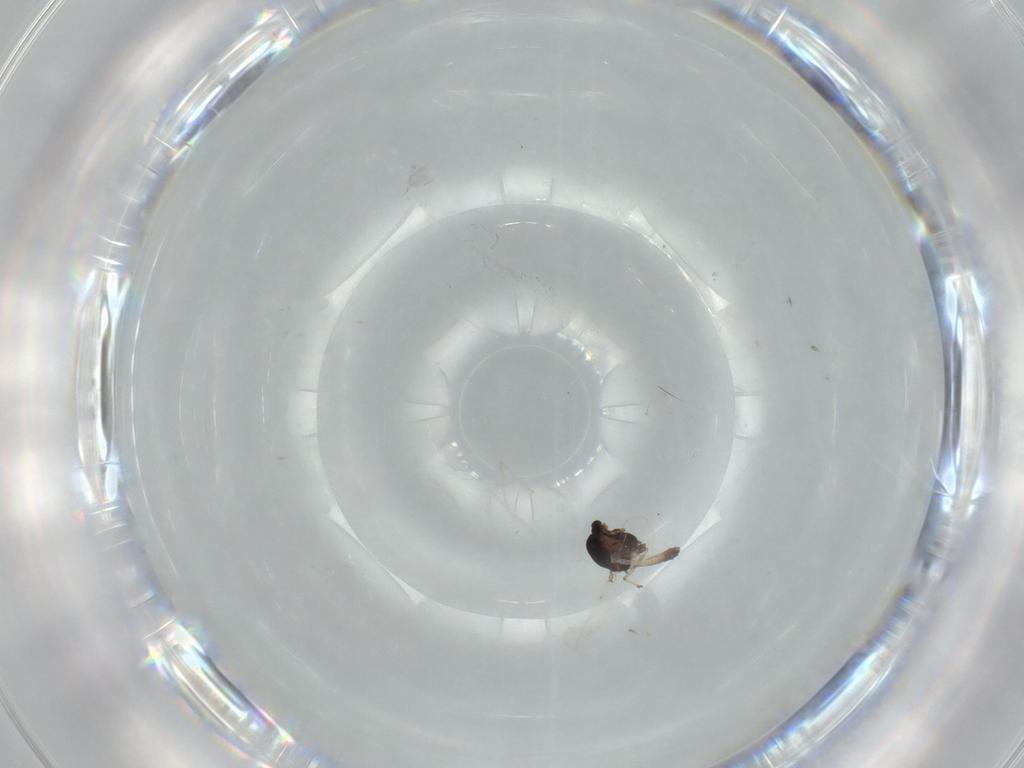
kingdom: Animalia
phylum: Arthropoda
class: Insecta
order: Diptera
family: Chironomidae
